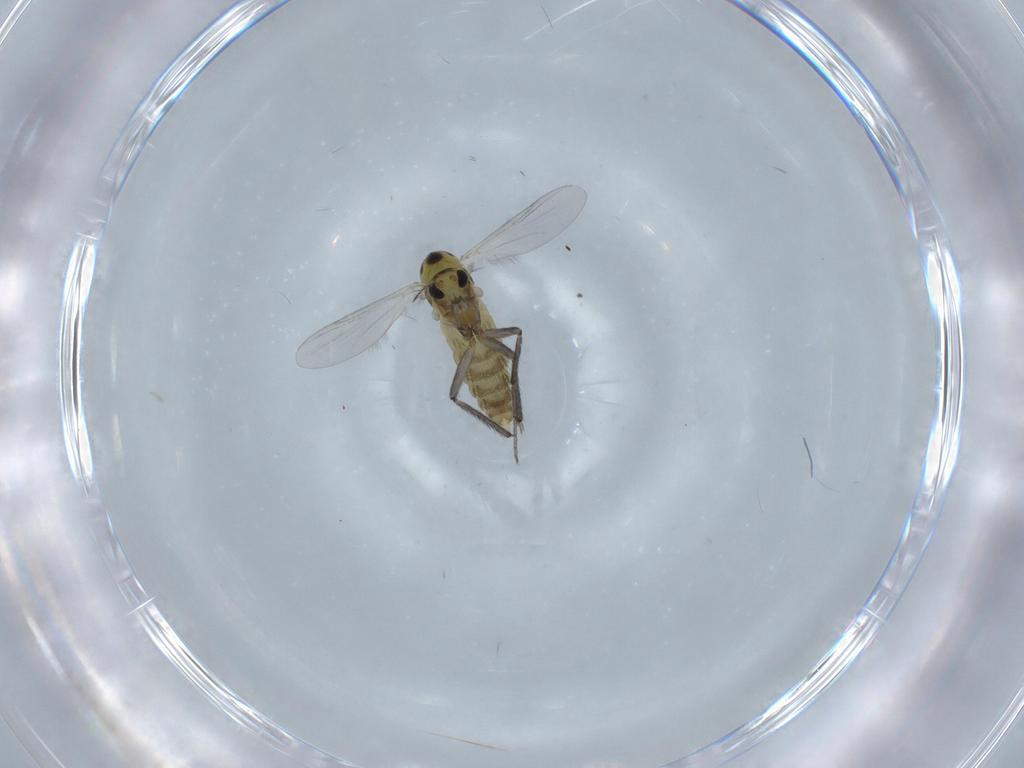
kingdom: Animalia
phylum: Arthropoda
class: Insecta
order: Diptera
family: Chironomidae
